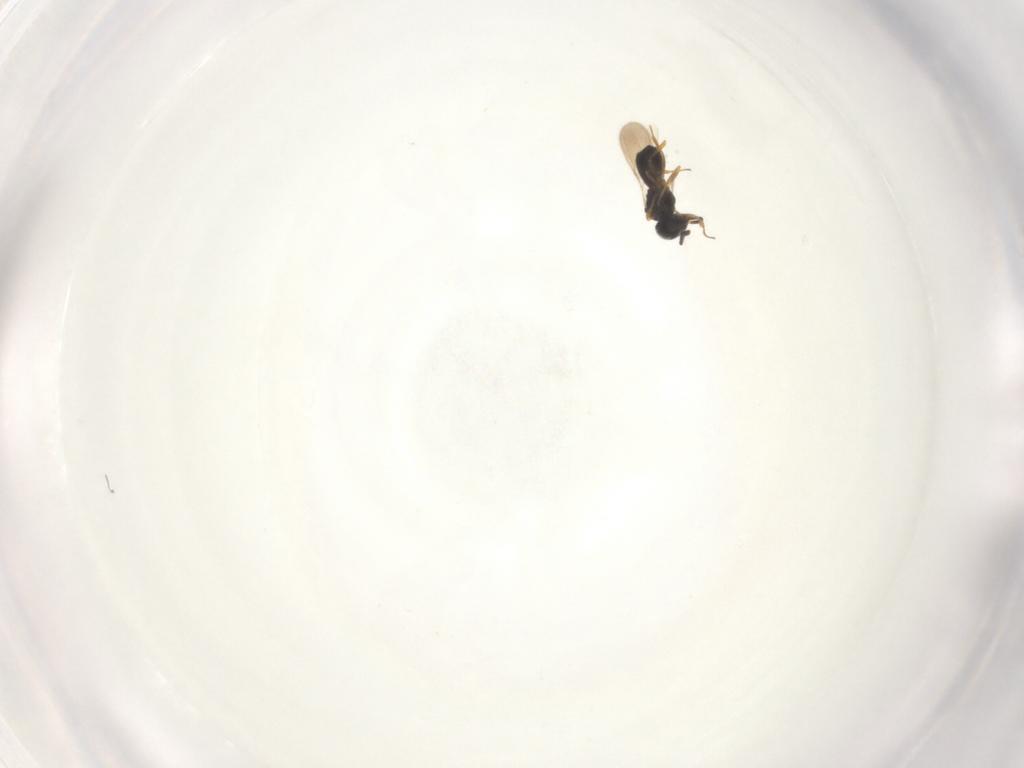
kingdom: Animalia
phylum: Arthropoda
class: Insecta
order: Hymenoptera
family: Scelionidae
